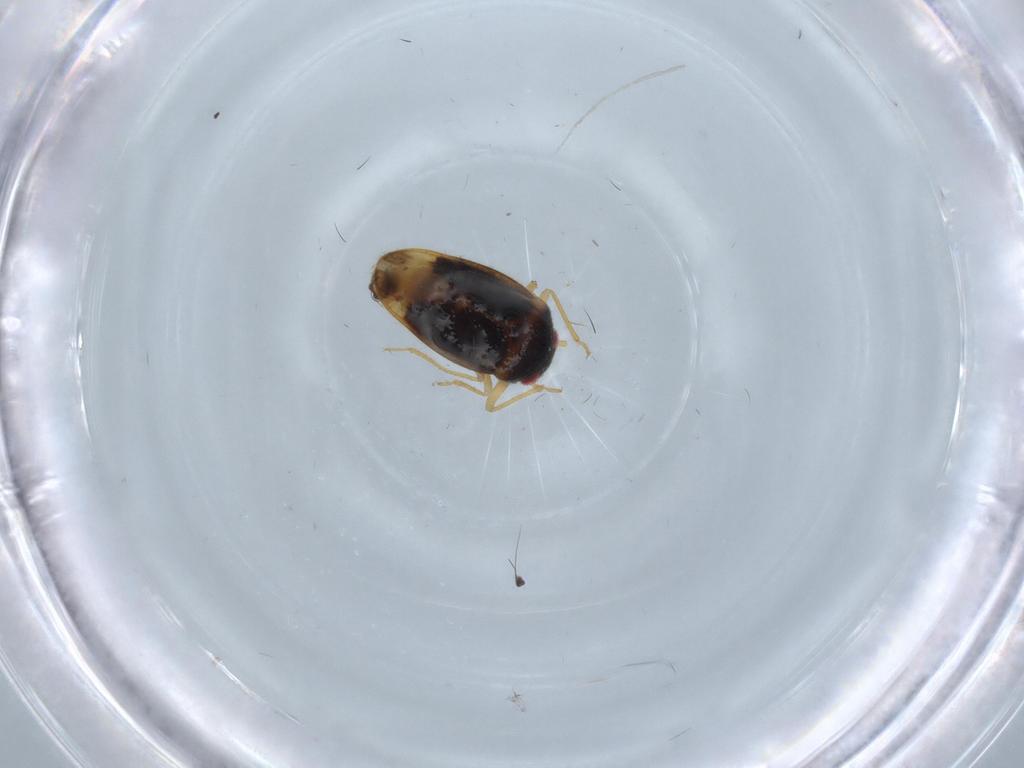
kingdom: Animalia
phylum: Arthropoda
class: Insecta
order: Hemiptera
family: Schizopteridae
